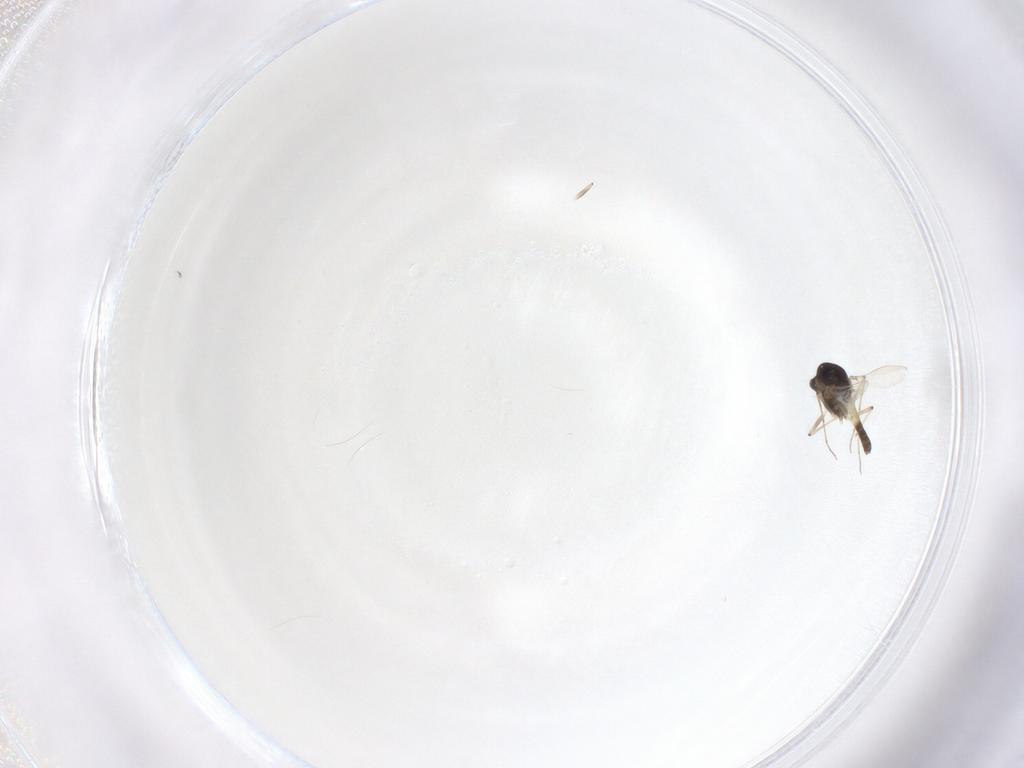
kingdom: Animalia
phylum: Arthropoda
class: Insecta
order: Diptera
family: Chironomidae
